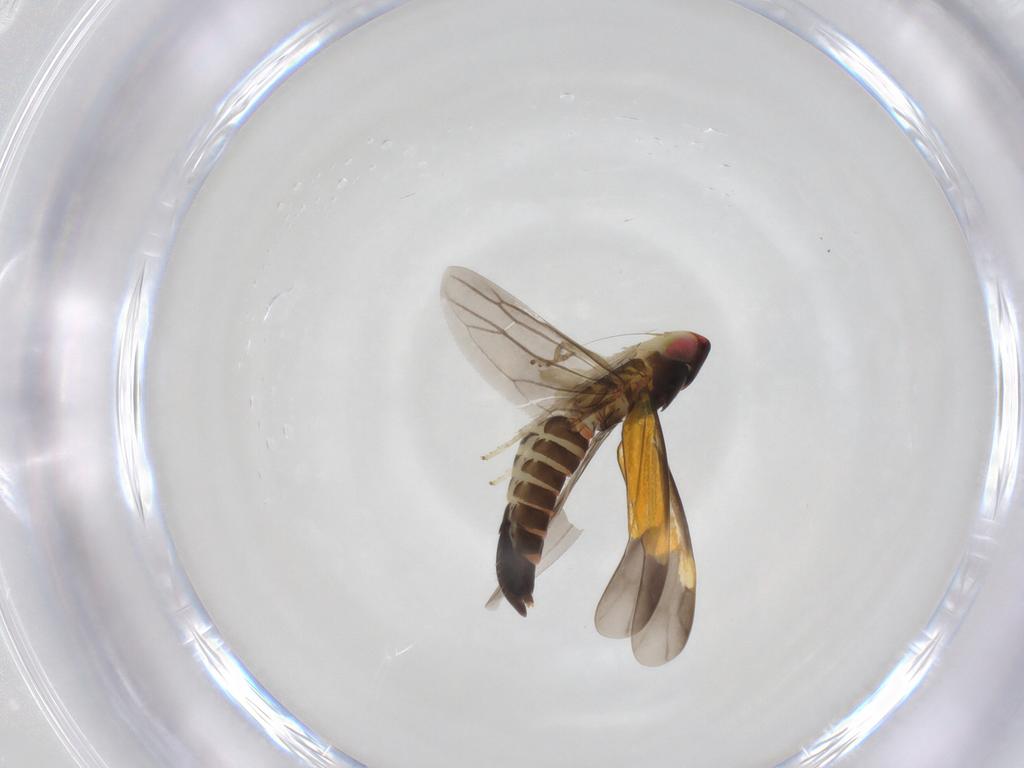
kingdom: Animalia
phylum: Arthropoda
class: Insecta
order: Hemiptera
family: Cicadellidae
